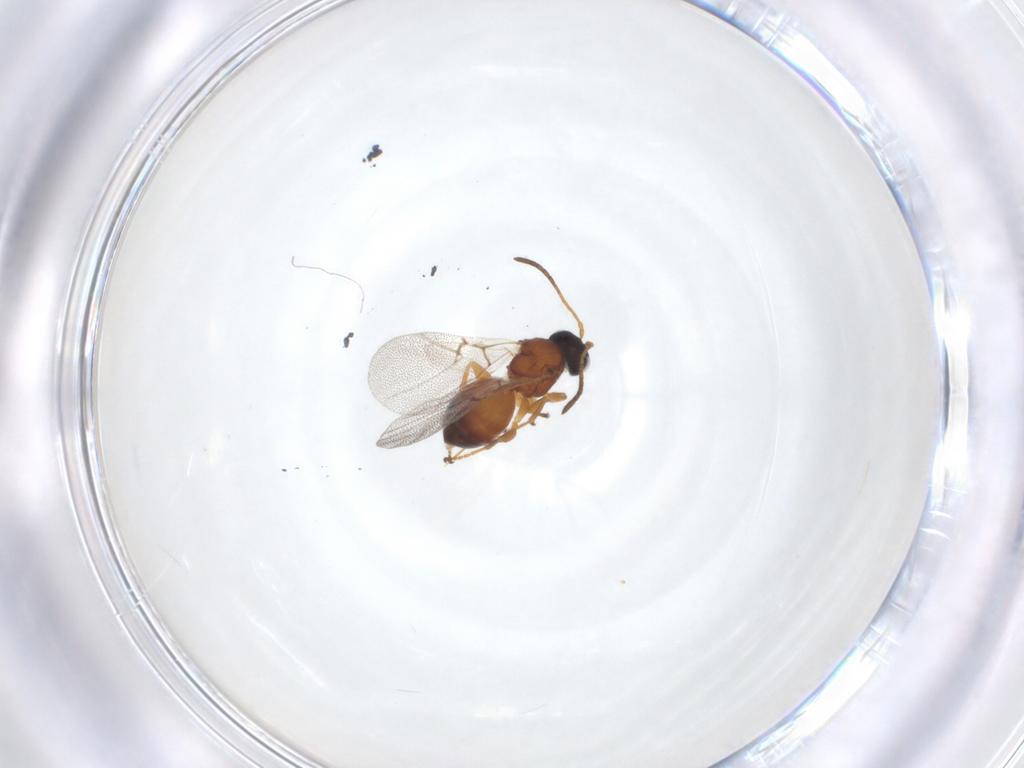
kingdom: Animalia
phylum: Arthropoda
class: Insecta
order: Hymenoptera
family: Cynipidae
